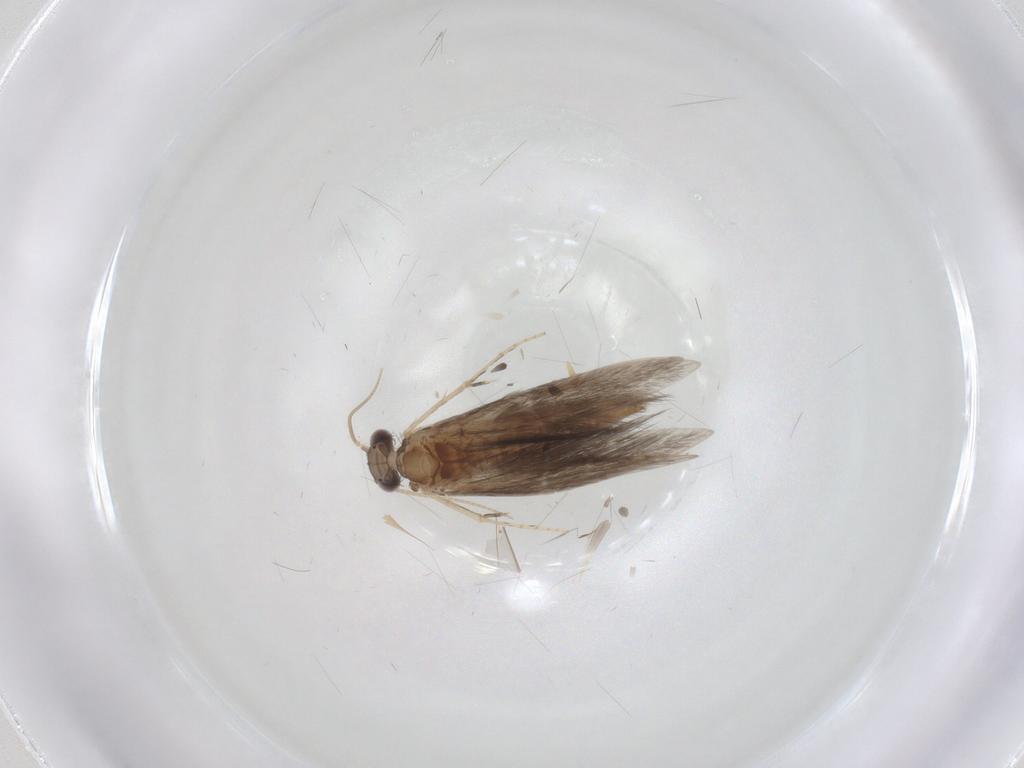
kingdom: Animalia
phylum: Arthropoda
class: Insecta
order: Trichoptera
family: Hydroptilidae
